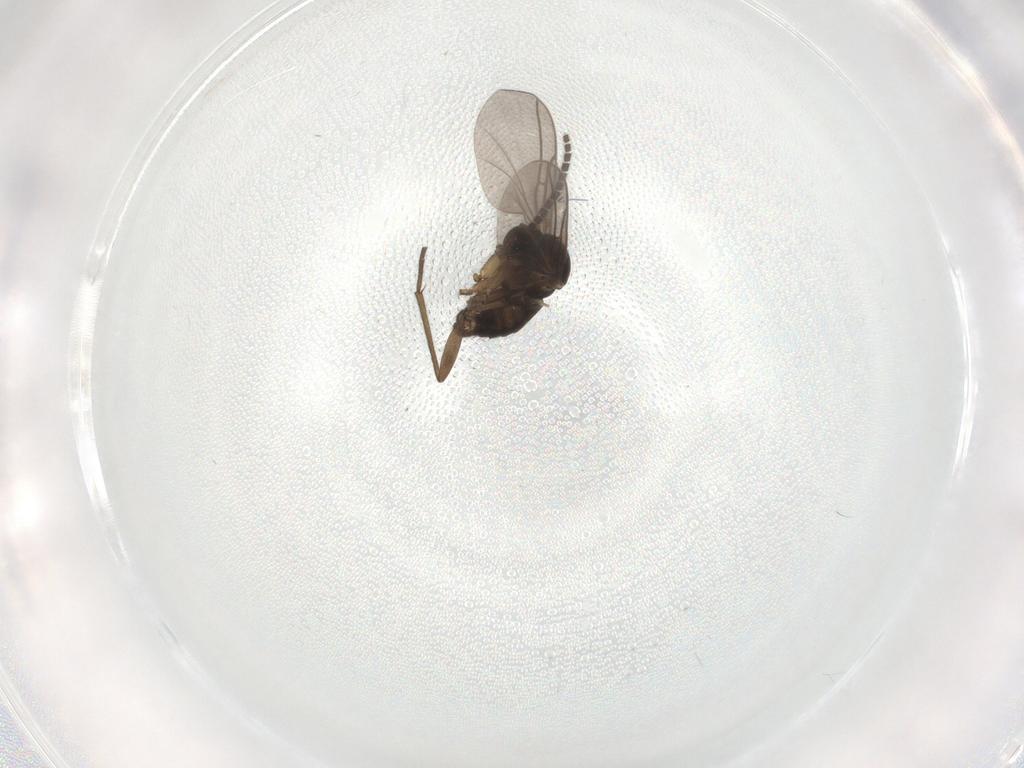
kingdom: Animalia
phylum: Arthropoda
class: Insecta
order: Diptera
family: Sciaridae
